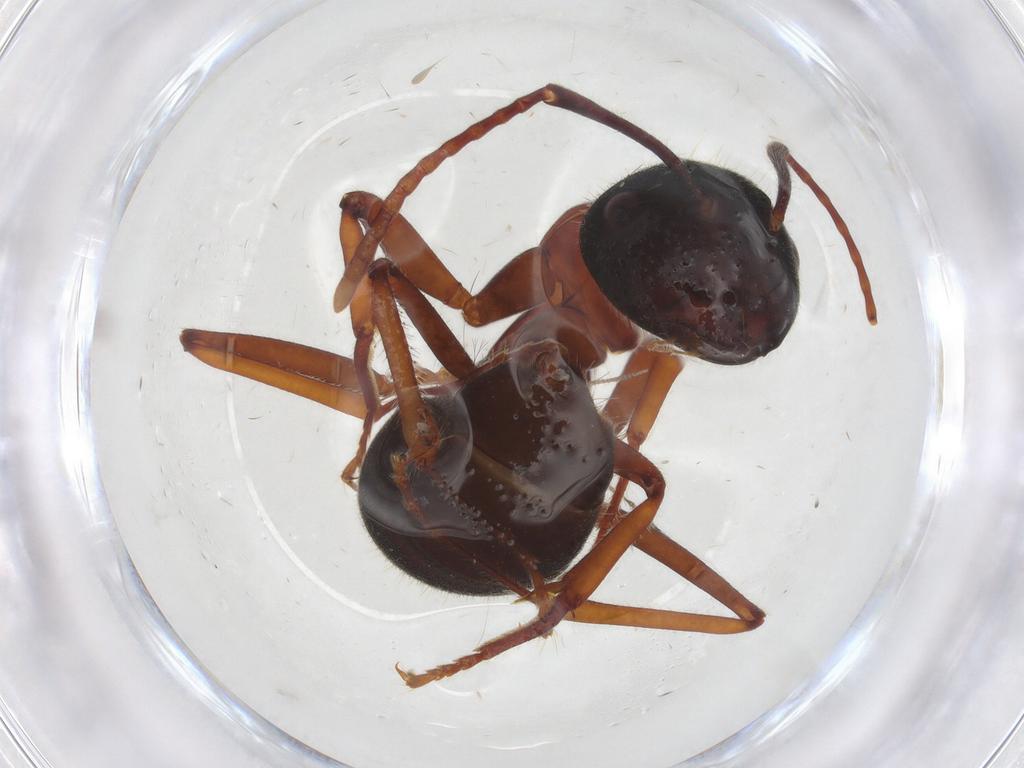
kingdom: Animalia
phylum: Arthropoda
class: Insecta
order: Hymenoptera
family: Formicidae
